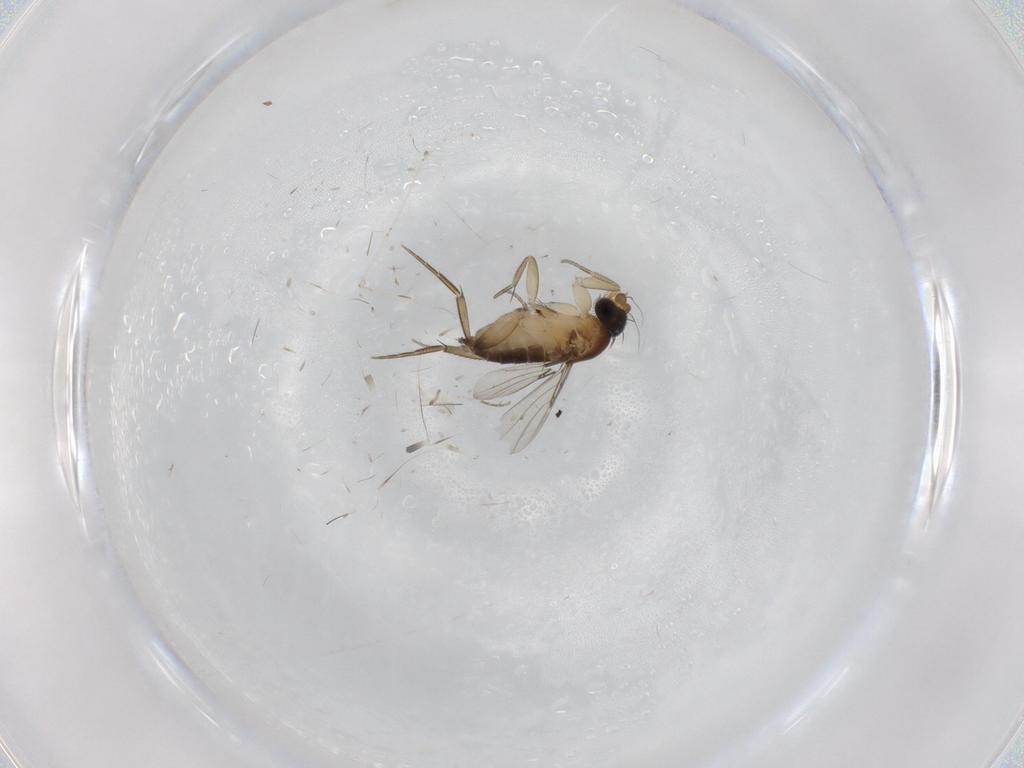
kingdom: Animalia
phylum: Arthropoda
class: Insecta
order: Diptera
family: Phoridae
